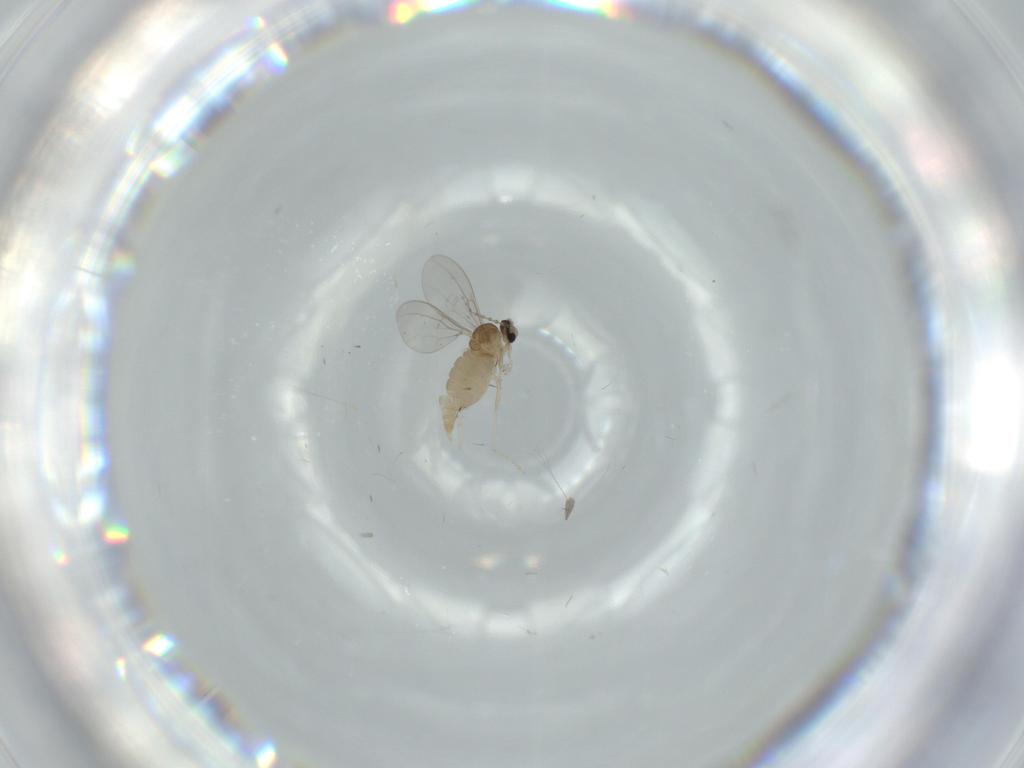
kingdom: Animalia
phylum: Arthropoda
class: Insecta
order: Diptera
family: Cecidomyiidae
